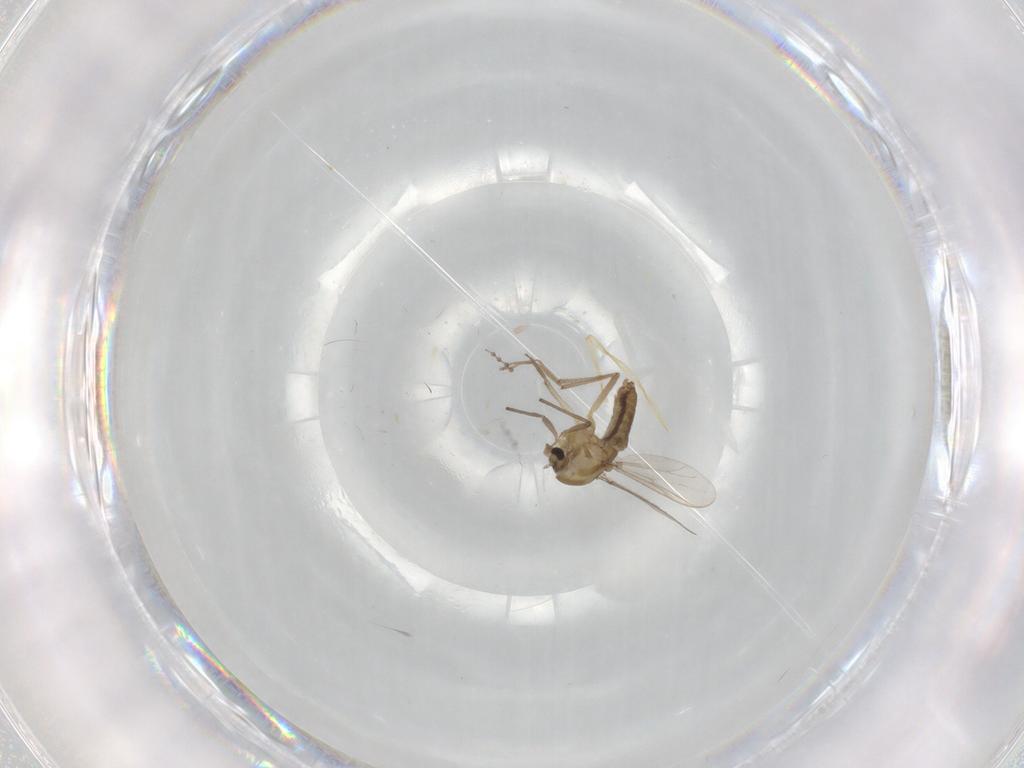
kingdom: Animalia
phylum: Arthropoda
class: Insecta
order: Diptera
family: Chironomidae
